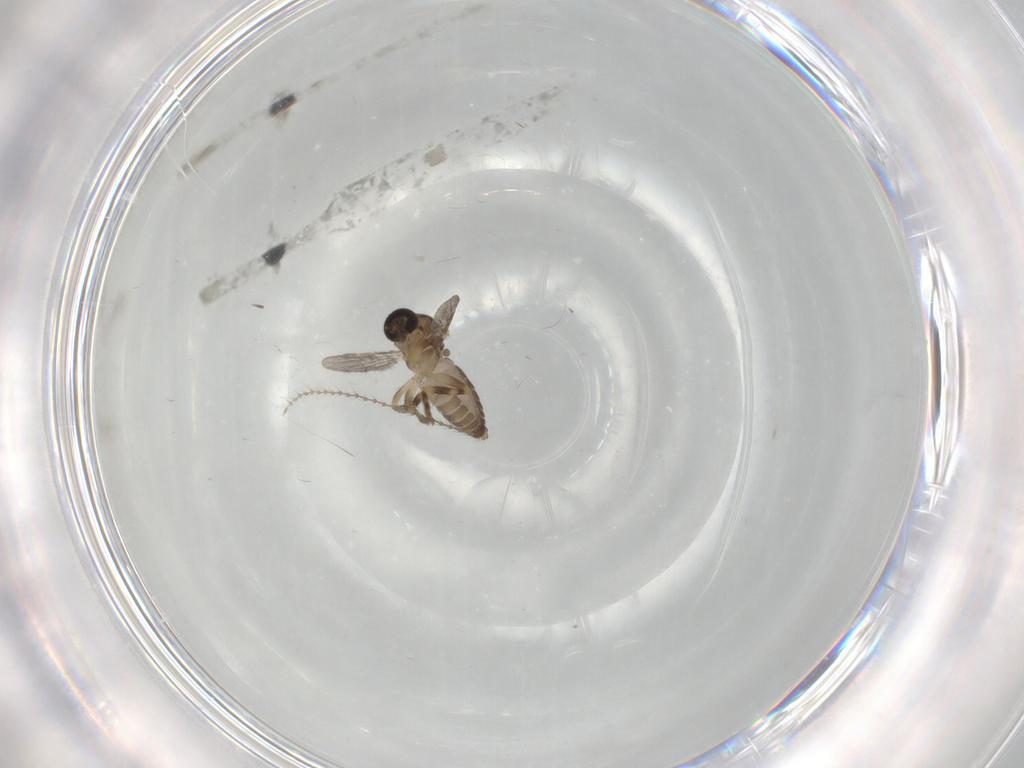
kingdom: Animalia
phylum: Arthropoda
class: Insecta
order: Diptera
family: Ceratopogonidae
